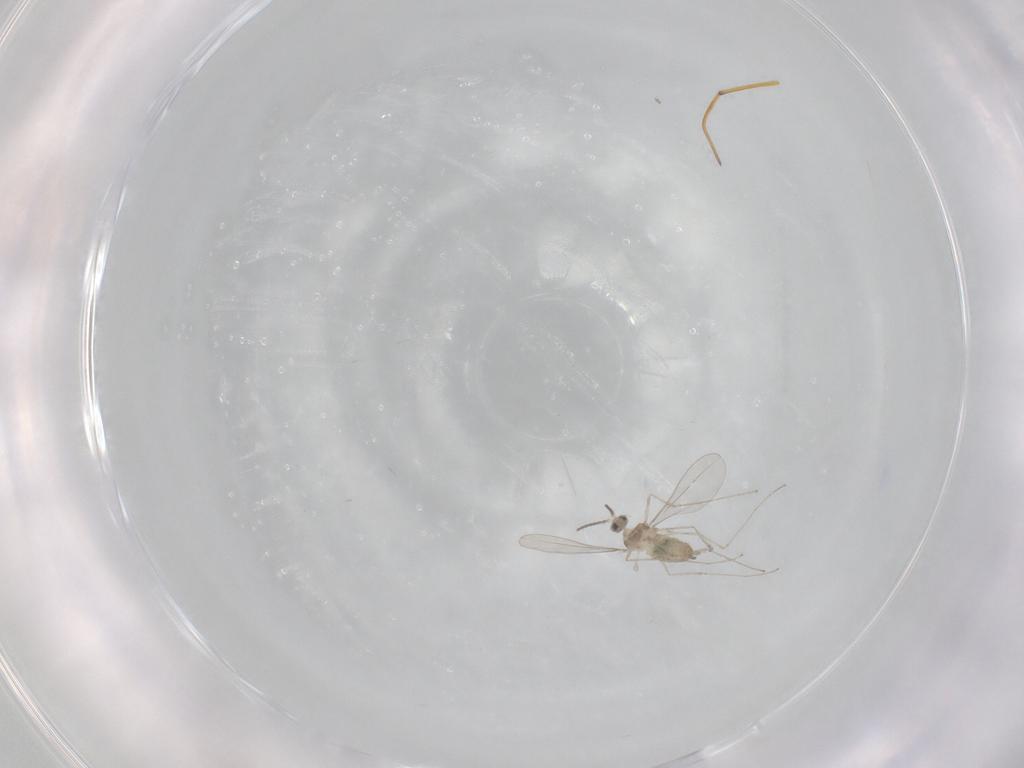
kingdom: Animalia
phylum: Arthropoda
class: Insecta
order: Diptera
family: Cecidomyiidae
